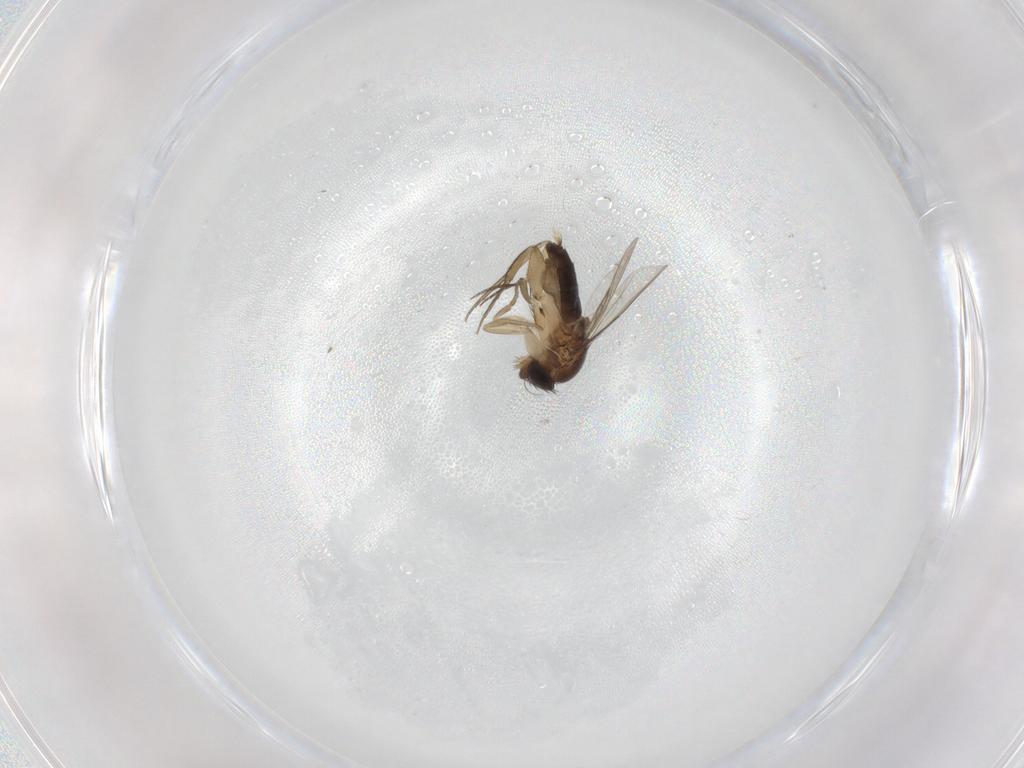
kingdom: Animalia
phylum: Arthropoda
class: Insecta
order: Diptera
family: Phoridae
